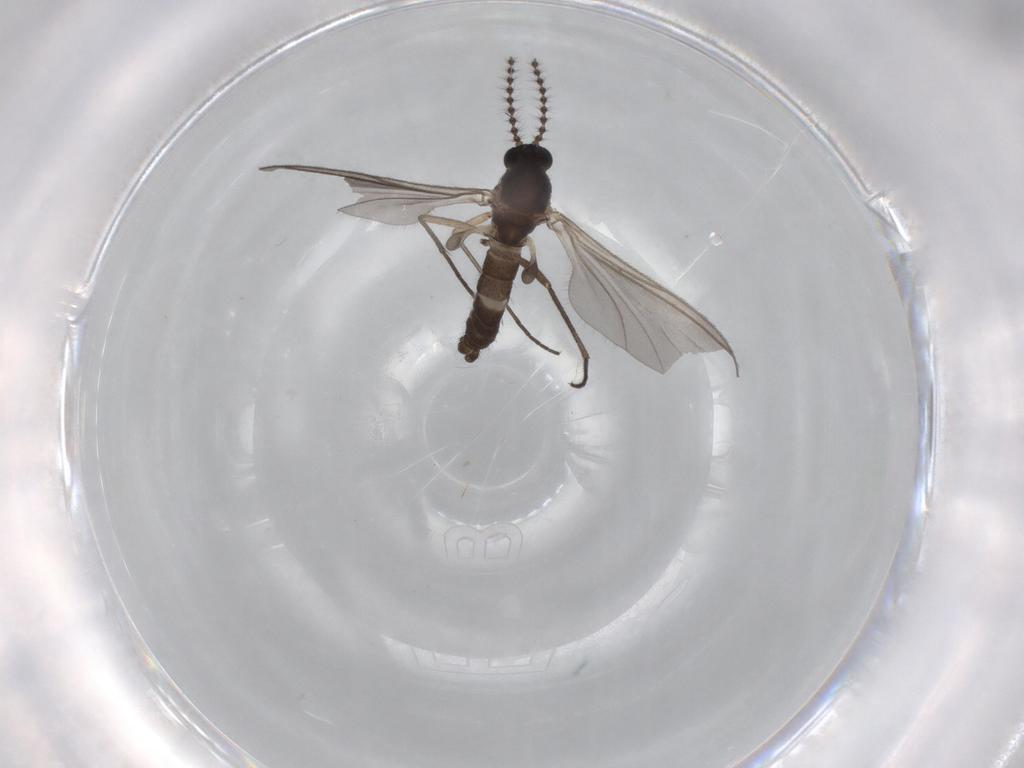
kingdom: Animalia
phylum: Arthropoda
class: Insecta
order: Diptera
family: Sciaridae
